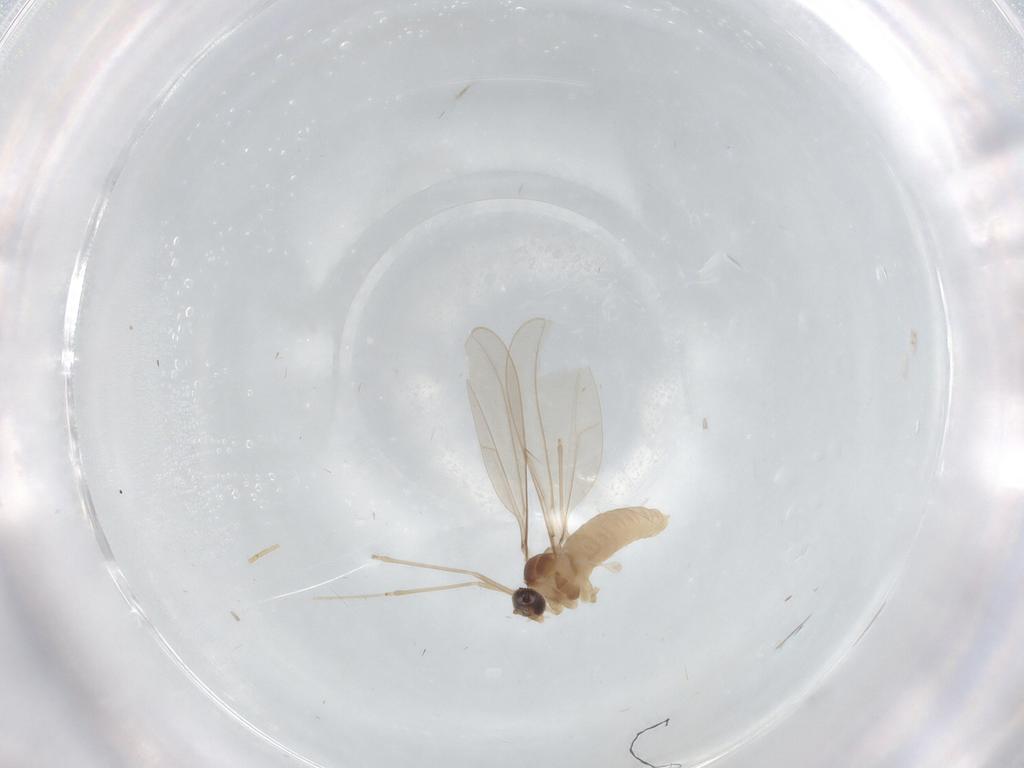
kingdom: Animalia
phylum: Arthropoda
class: Insecta
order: Diptera
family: Cecidomyiidae
